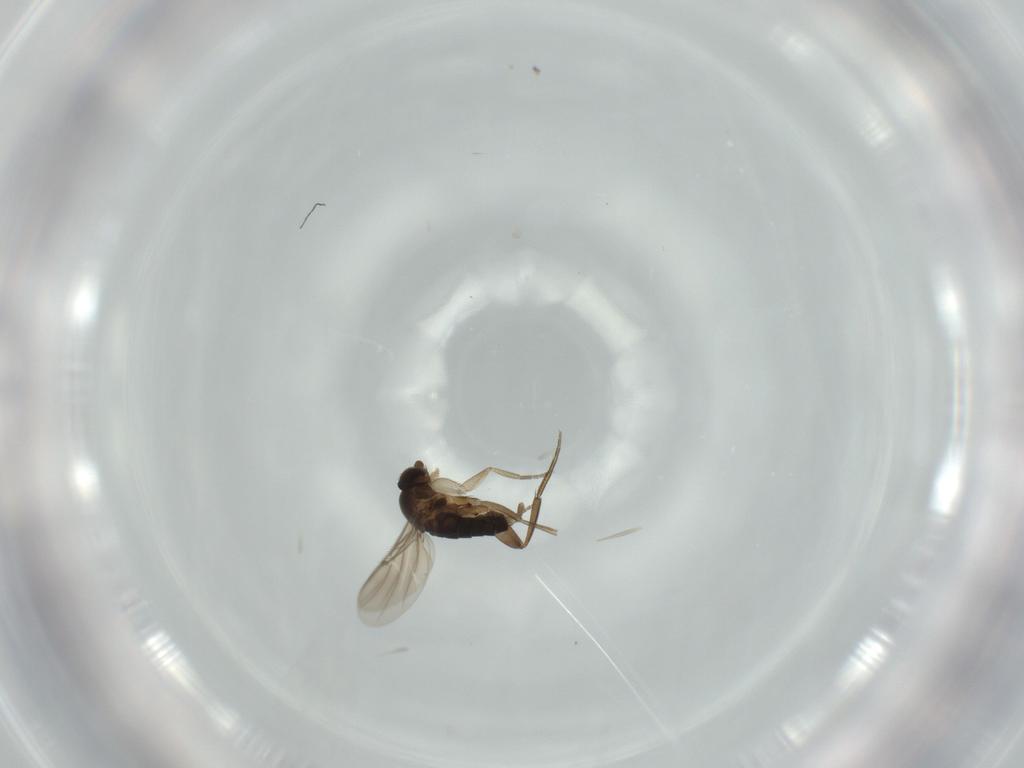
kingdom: Animalia
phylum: Arthropoda
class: Insecta
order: Diptera
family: Phoridae
